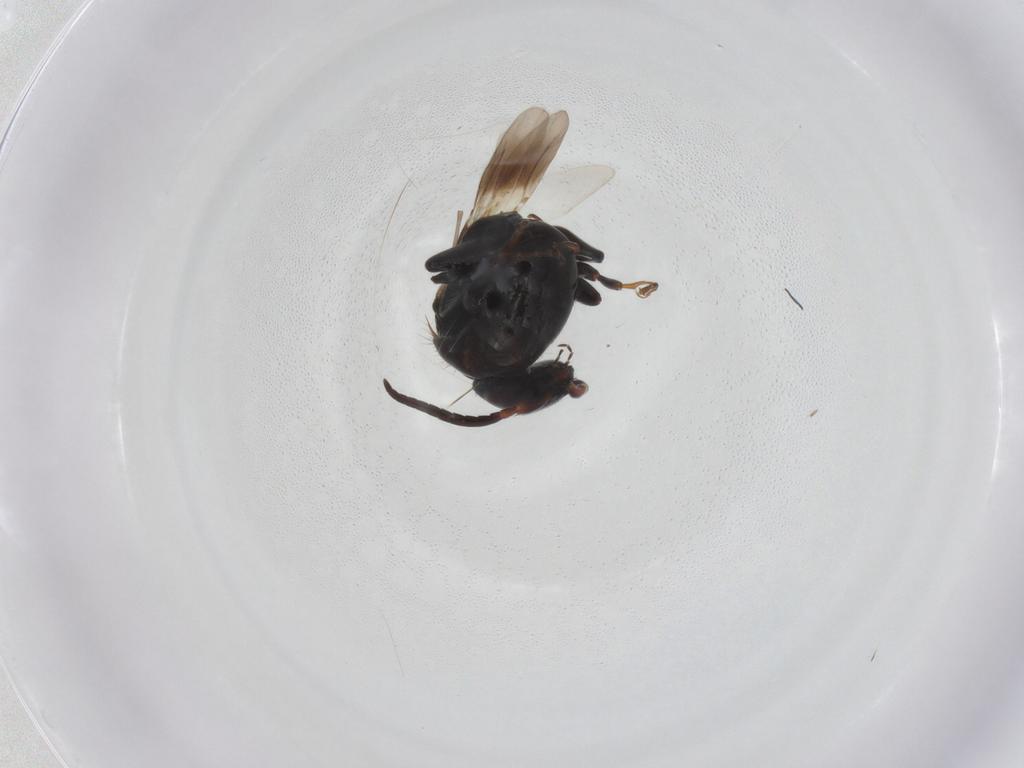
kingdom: Animalia
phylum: Arthropoda
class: Insecta
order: Hymenoptera
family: Bethylidae
